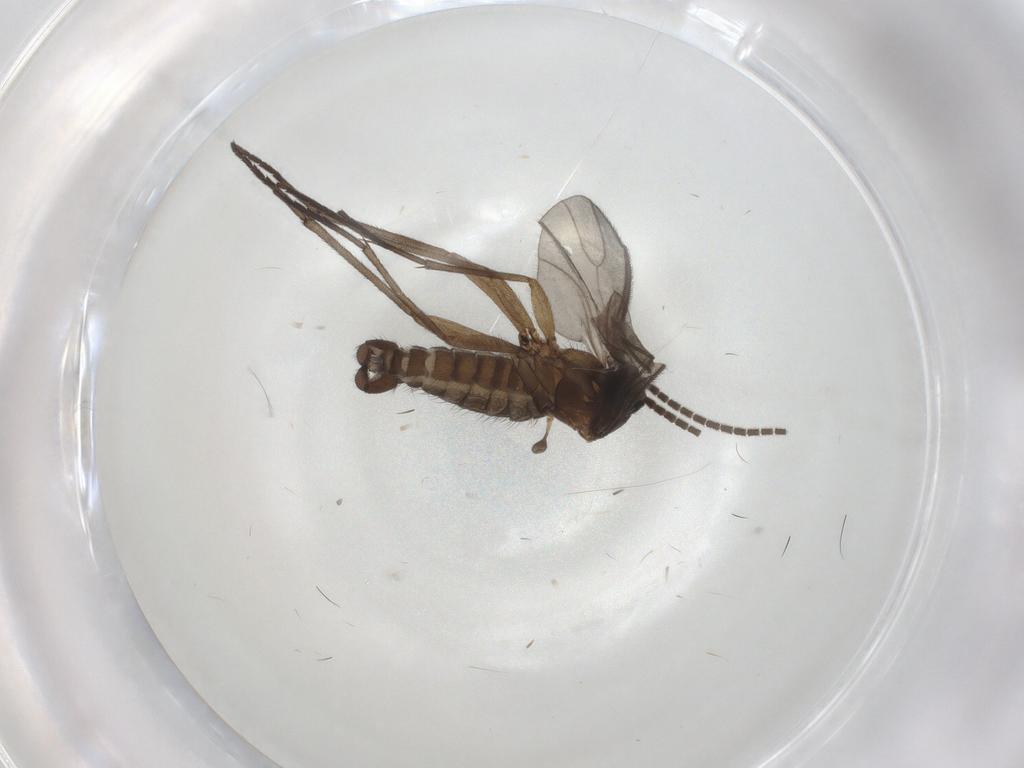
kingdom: Animalia
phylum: Arthropoda
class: Insecta
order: Diptera
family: Sciaridae
